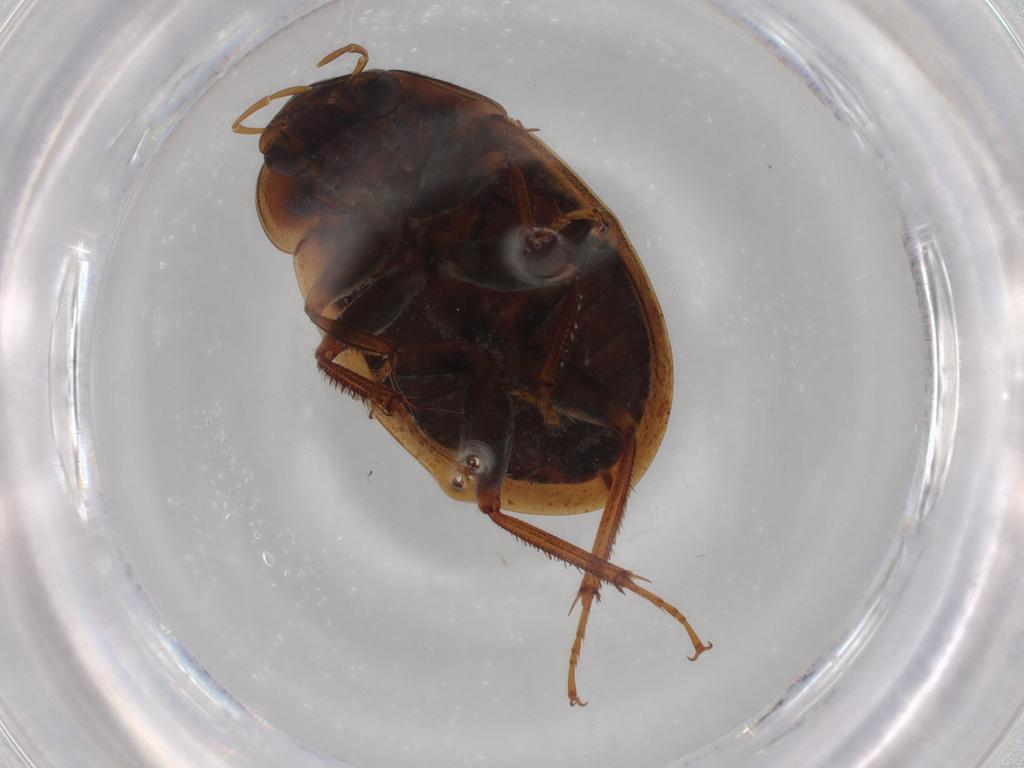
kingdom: Animalia
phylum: Arthropoda
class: Insecta
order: Coleoptera
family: Hydrophilidae
